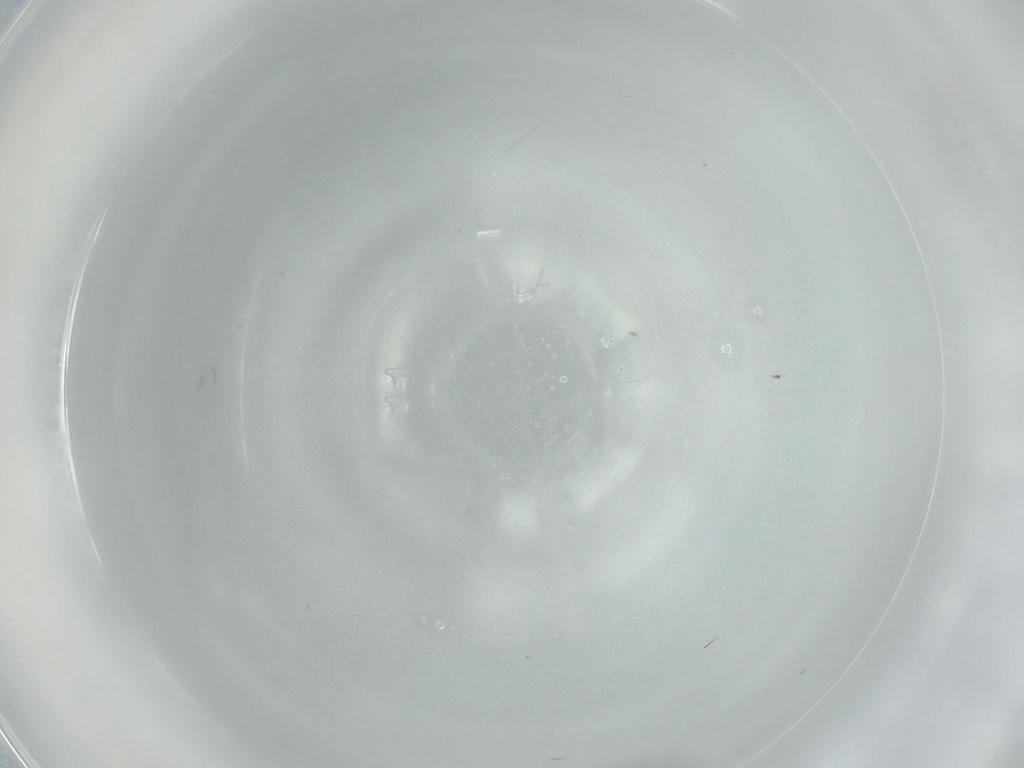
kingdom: Animalia
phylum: Arthropoda
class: Insecta
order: Diptera
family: Sciaridae
